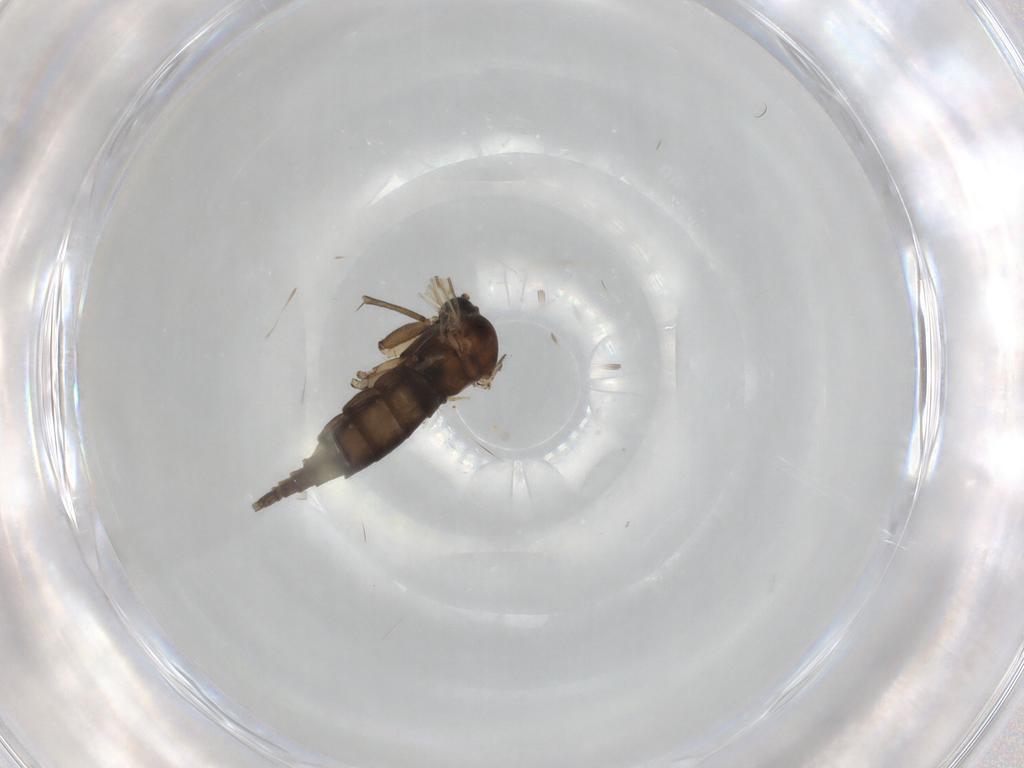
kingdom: Animalia
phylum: Arthropoda
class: Insecta
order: Diptera
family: Sciaridae
